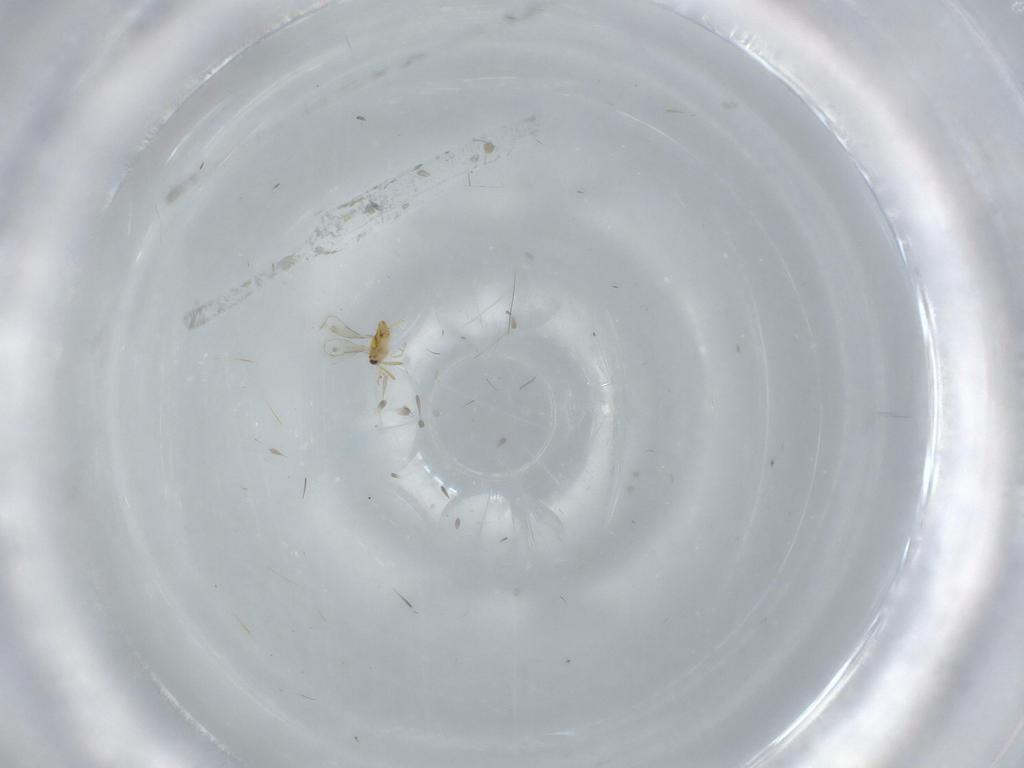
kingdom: Animalia
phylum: Arthropoda
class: Insecta
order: Hymenoptera
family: Aphelinidae
